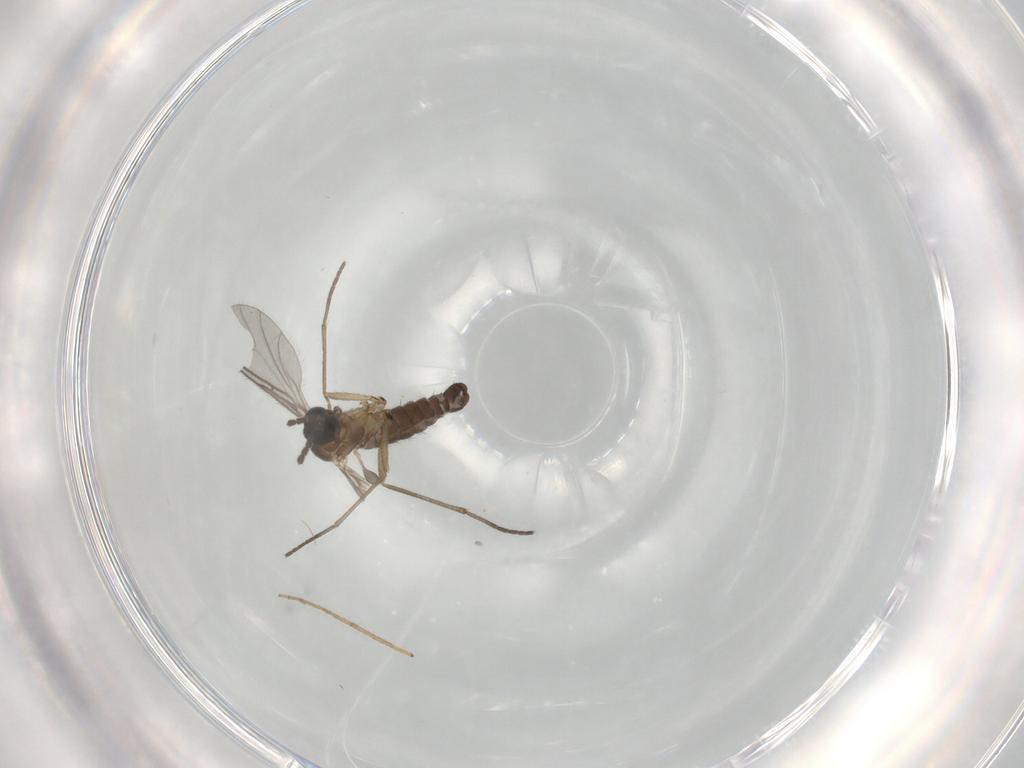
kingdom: Animalia
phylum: Arthropoda
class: Insecta
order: Diptera
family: Sciaridae
